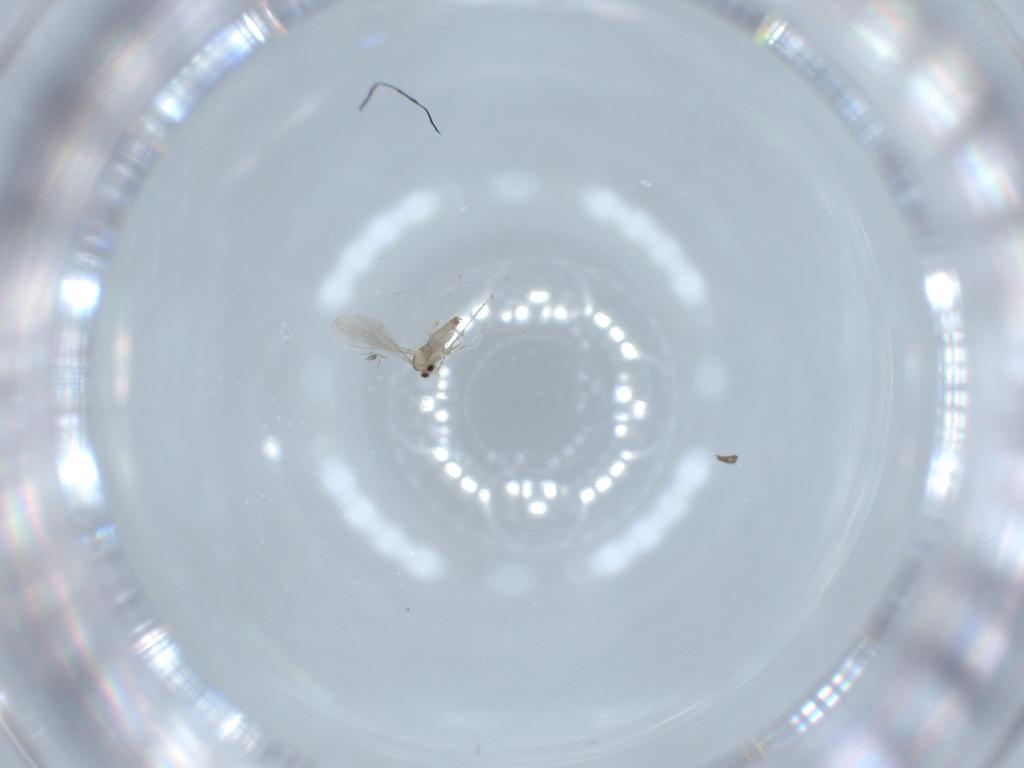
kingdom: Animalia
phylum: Arthropoda
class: Insecta
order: Diptera
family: Cecidomyiidae
